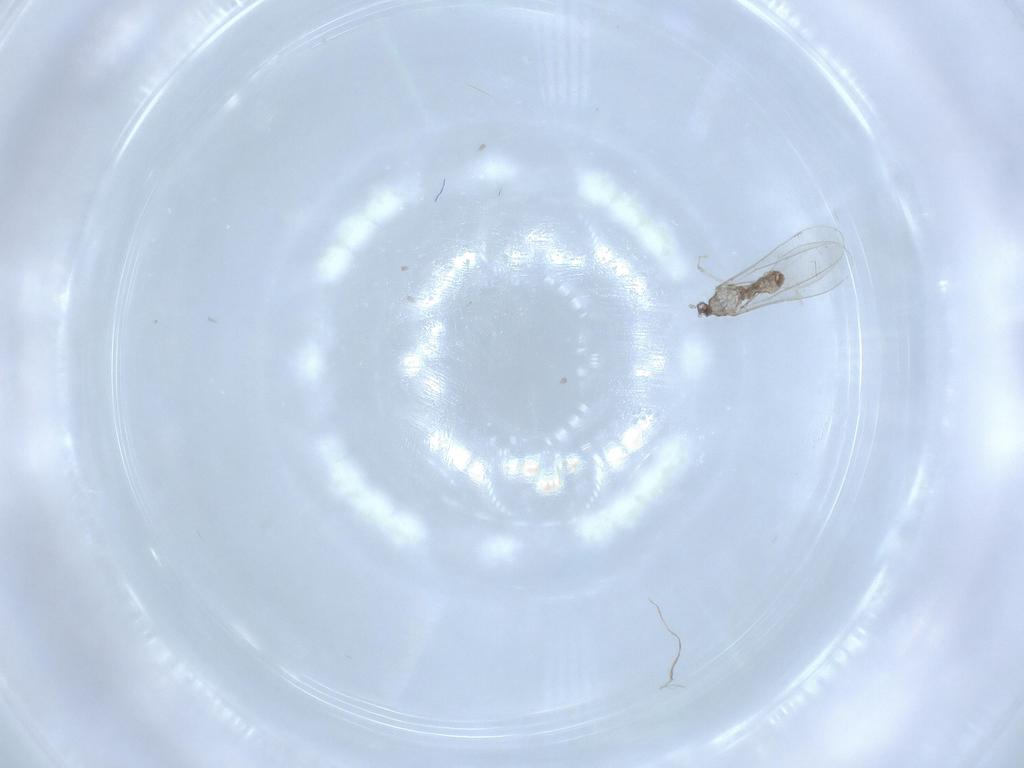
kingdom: Animalia
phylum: Arthropoda
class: Insecta
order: Diptera
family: Cecidomyiidae
